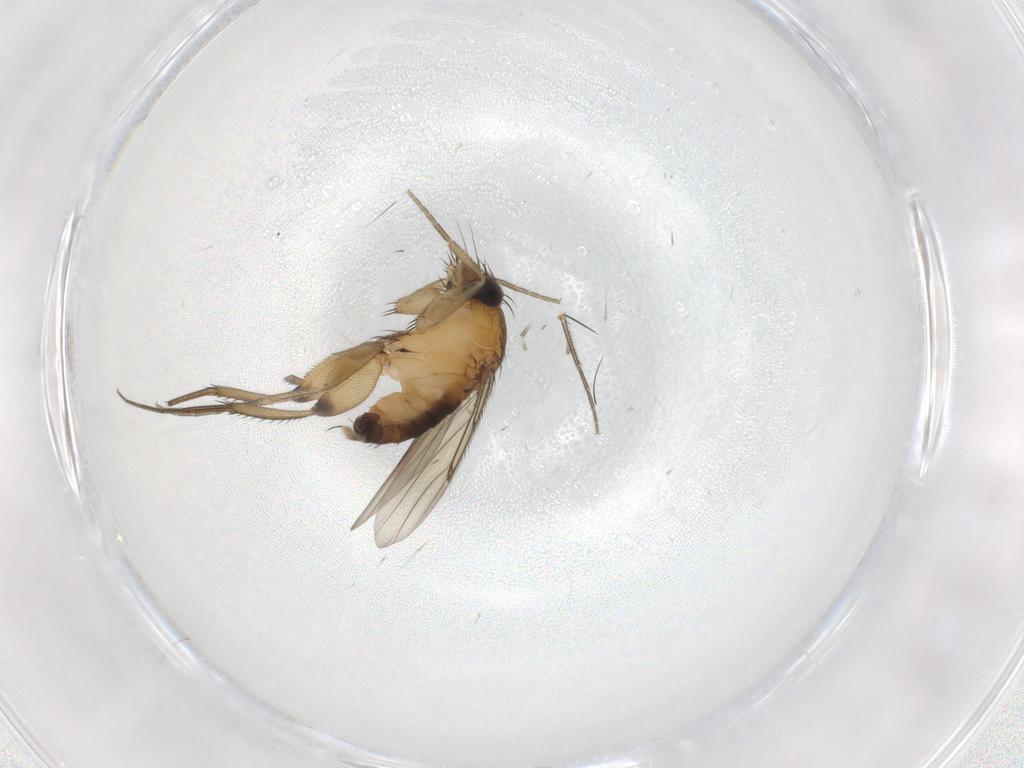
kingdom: Animalia
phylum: Arthropoda
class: Insecta
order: Diptera
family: Phoridae
